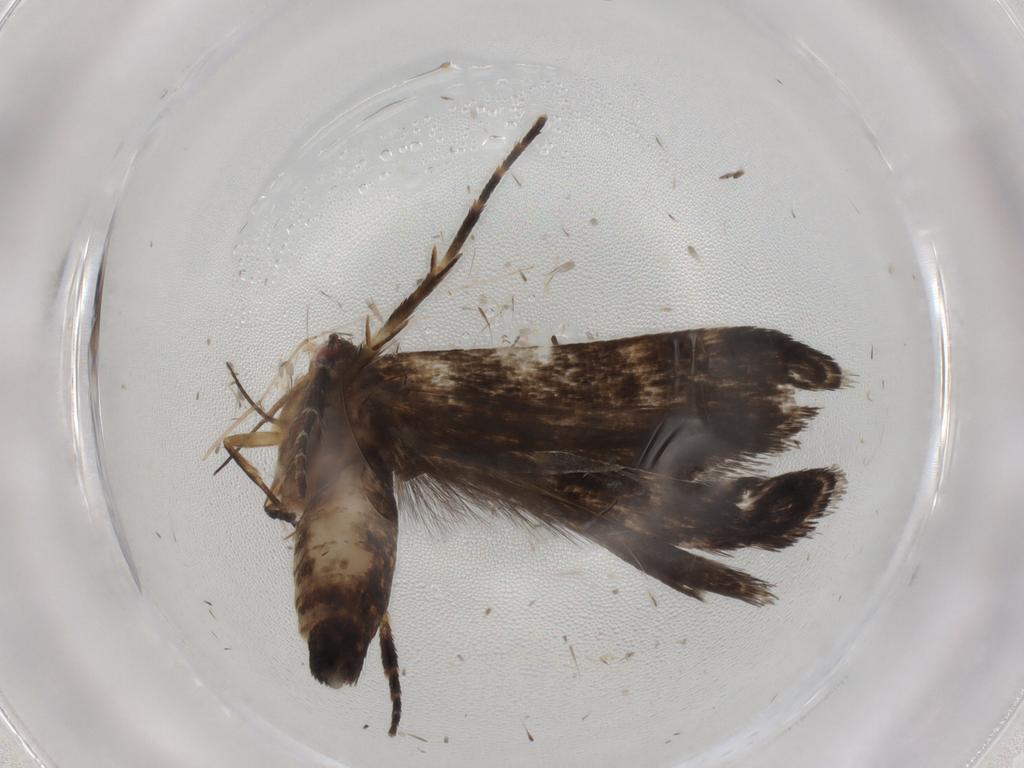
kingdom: Animalia
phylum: Arthropoda
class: Insecta
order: Lepidoptera
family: Gelechiidae
